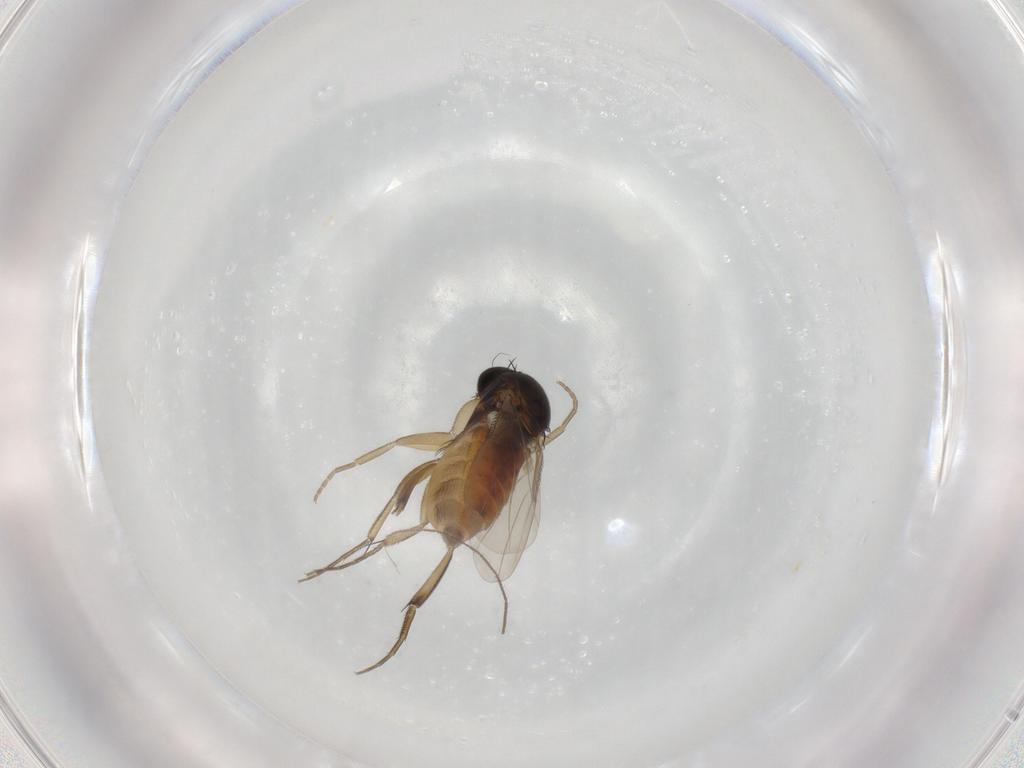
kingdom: Animalia
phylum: Arthropoda
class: Insecta
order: Diptera
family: Phoridae
